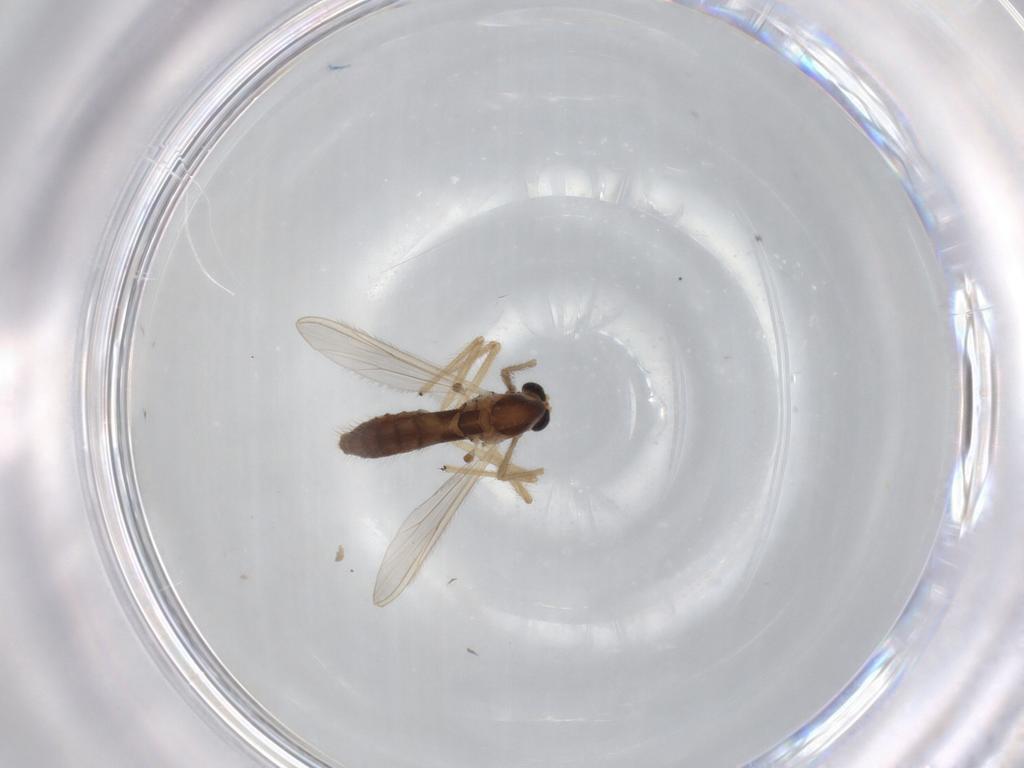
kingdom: Animalia
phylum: Arthropoda
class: Insecta
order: Diptera
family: Chironomidae
